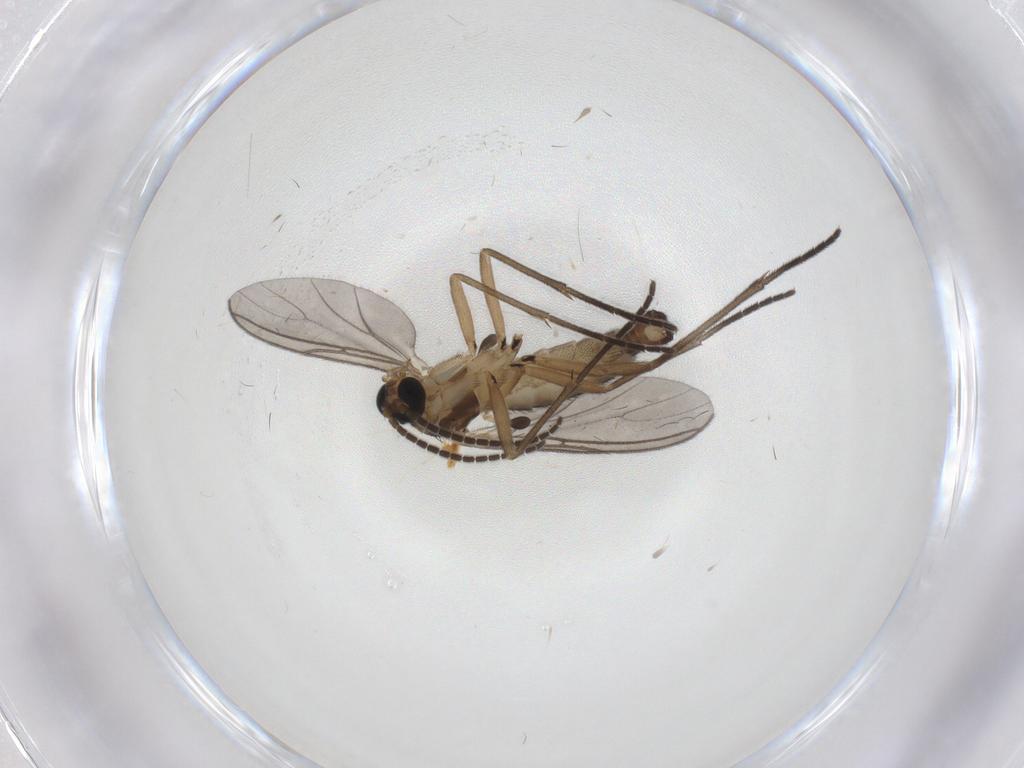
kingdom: Animalia
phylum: Arthropoda
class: Insecta
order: Diptera
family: Sciaridae
